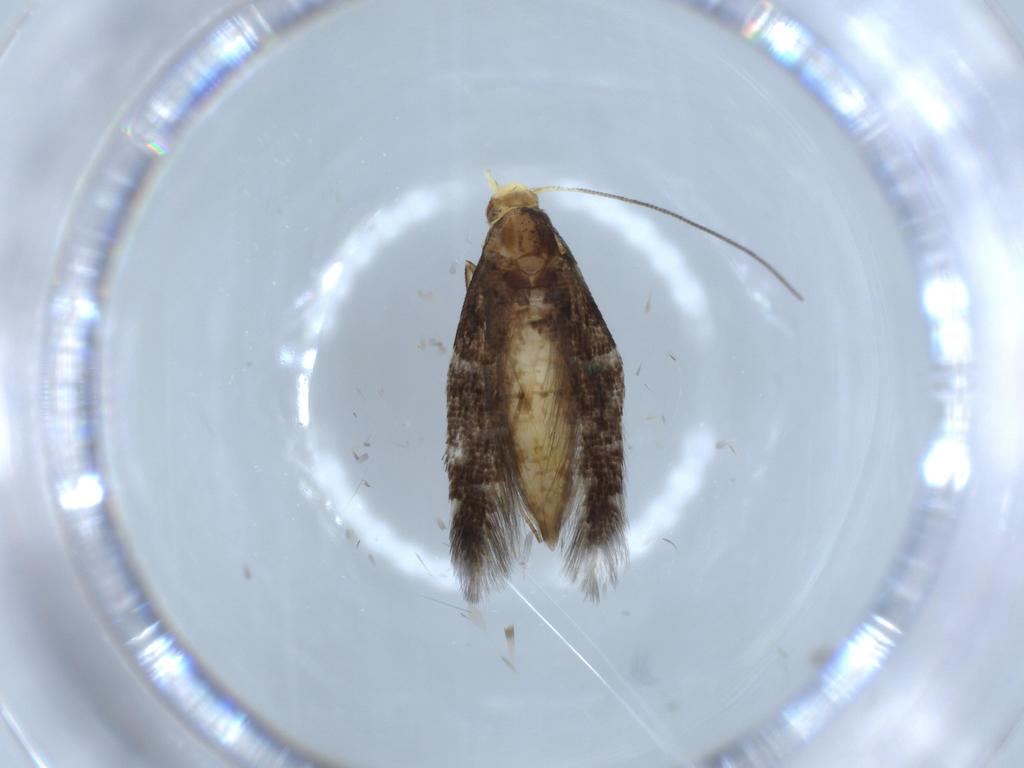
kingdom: Animalia
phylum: Arthropoda
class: Insecta
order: Lepidoptera
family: Cosmopterigidae
